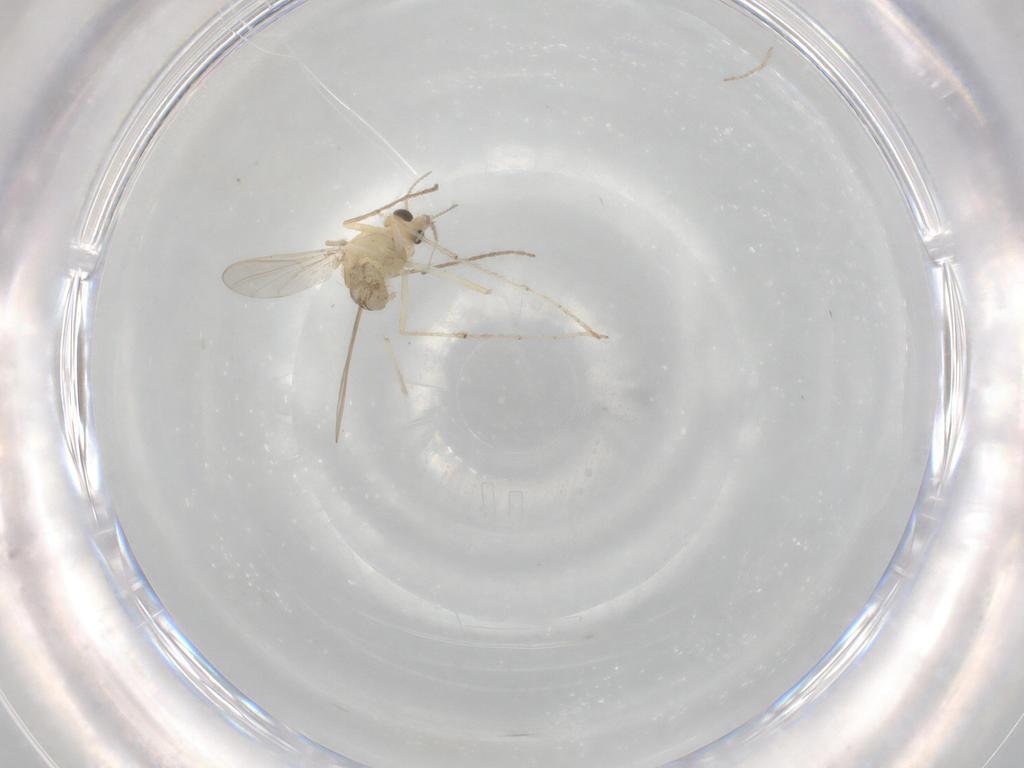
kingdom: Animalia
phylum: Arthropoda
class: Insecta
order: Diptera
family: Chironomidae
